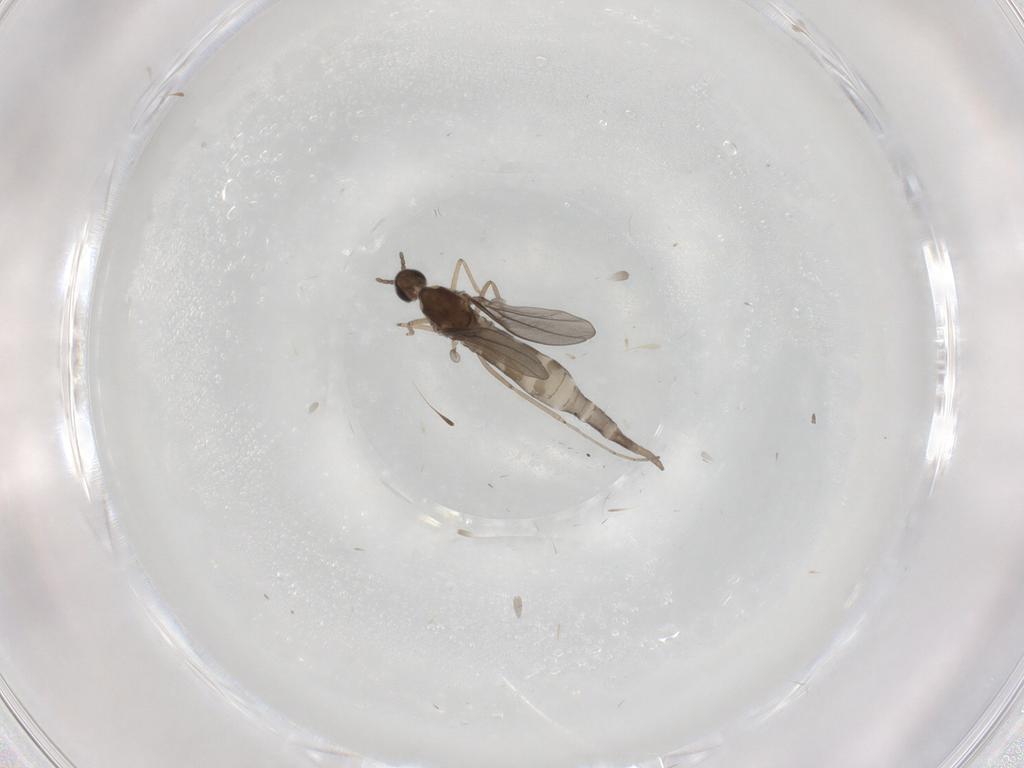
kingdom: Animalia
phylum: Arthropoda
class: Insecta
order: Diptera
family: Cecidomyiidae
